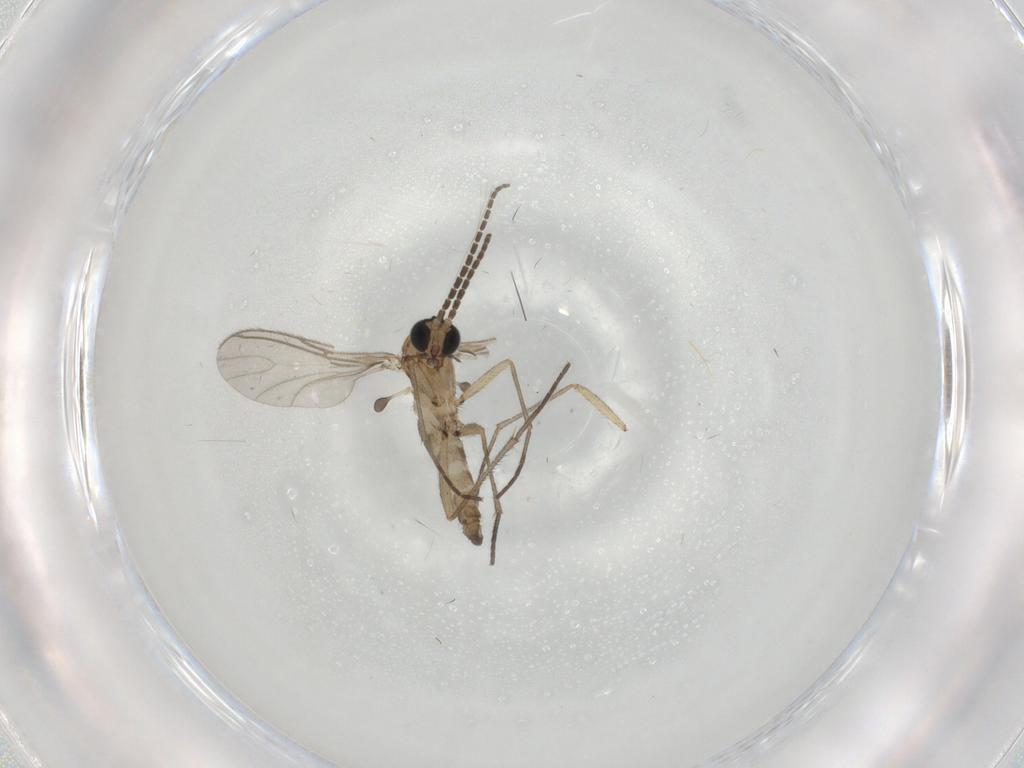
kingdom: Animalia
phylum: Arthropoda
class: Insecta
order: Diptera
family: Sciaridae
